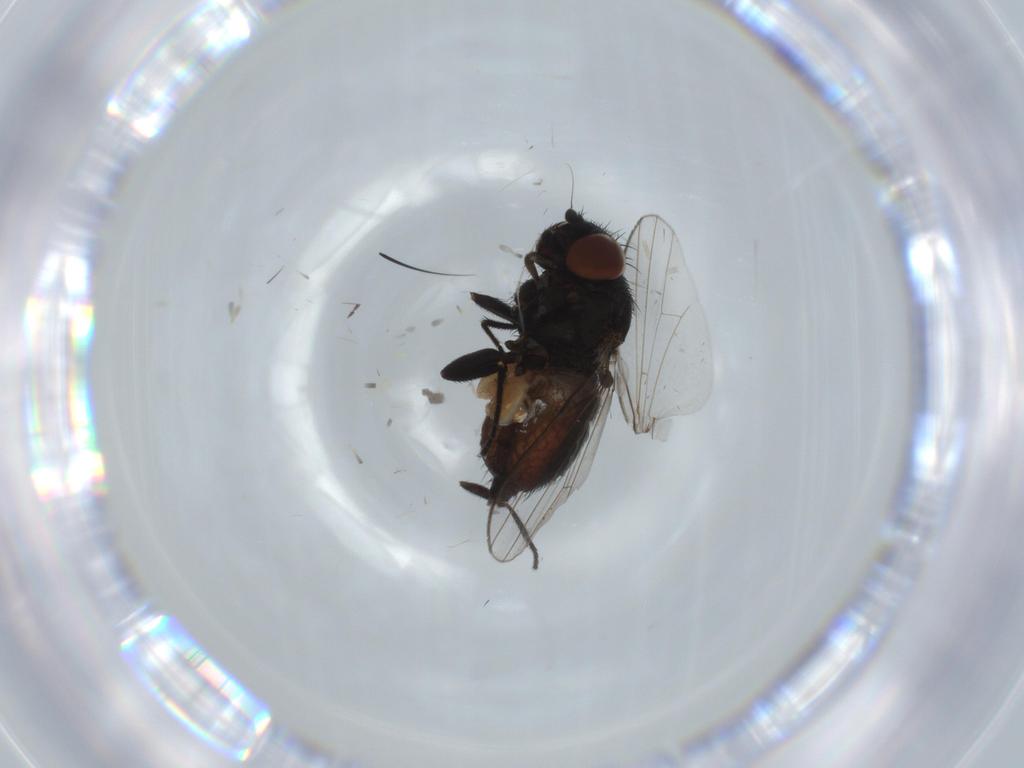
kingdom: Animalia
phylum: Arthropoda
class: Insecta
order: Diptera
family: Milichiidae
